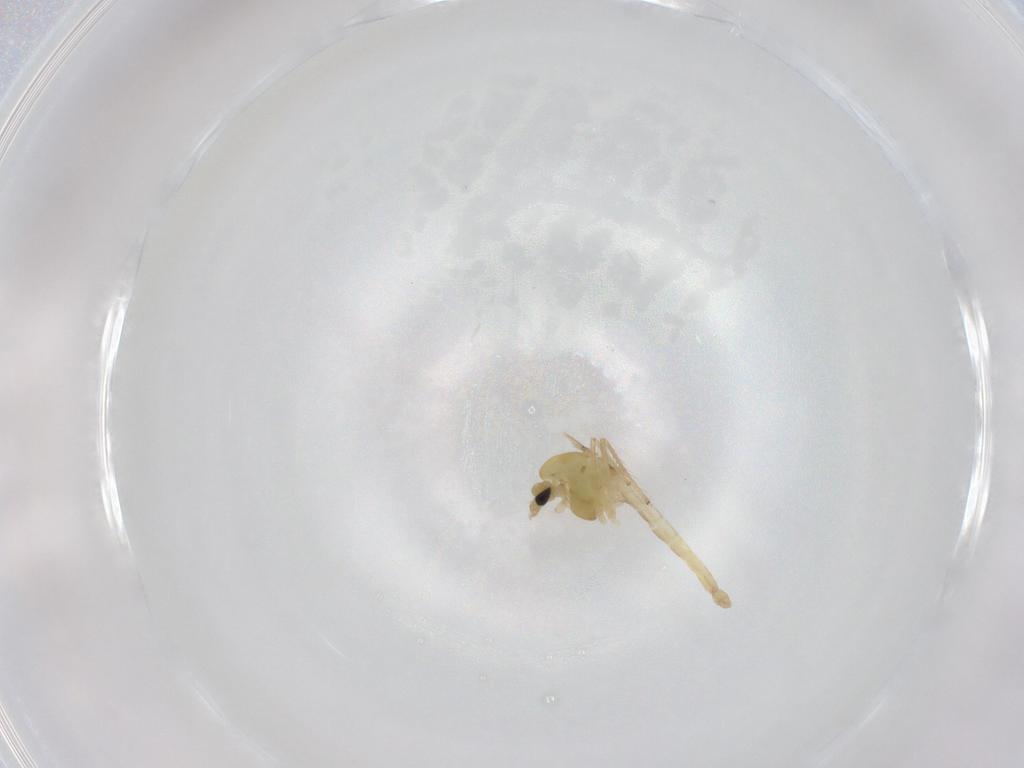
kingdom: Animalia
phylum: Arthropoda
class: Insecta
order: Diptera
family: Chironomidae
